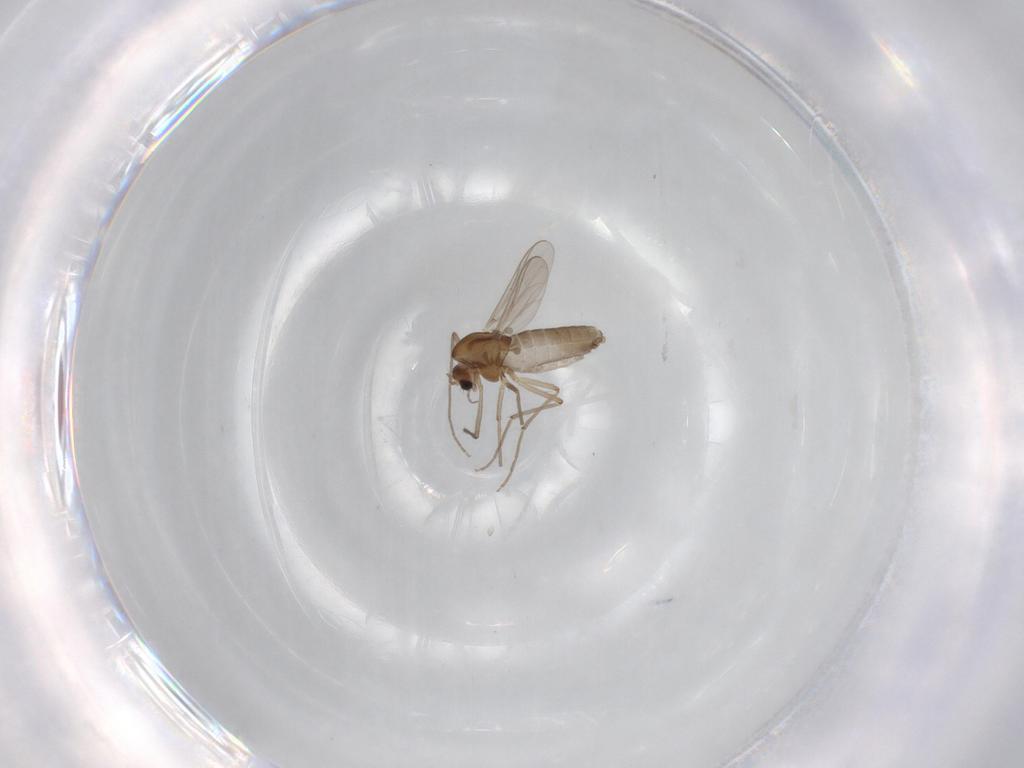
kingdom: Animalia
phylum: Arthropoda
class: Insecta
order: Diptera
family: Chironomidae
